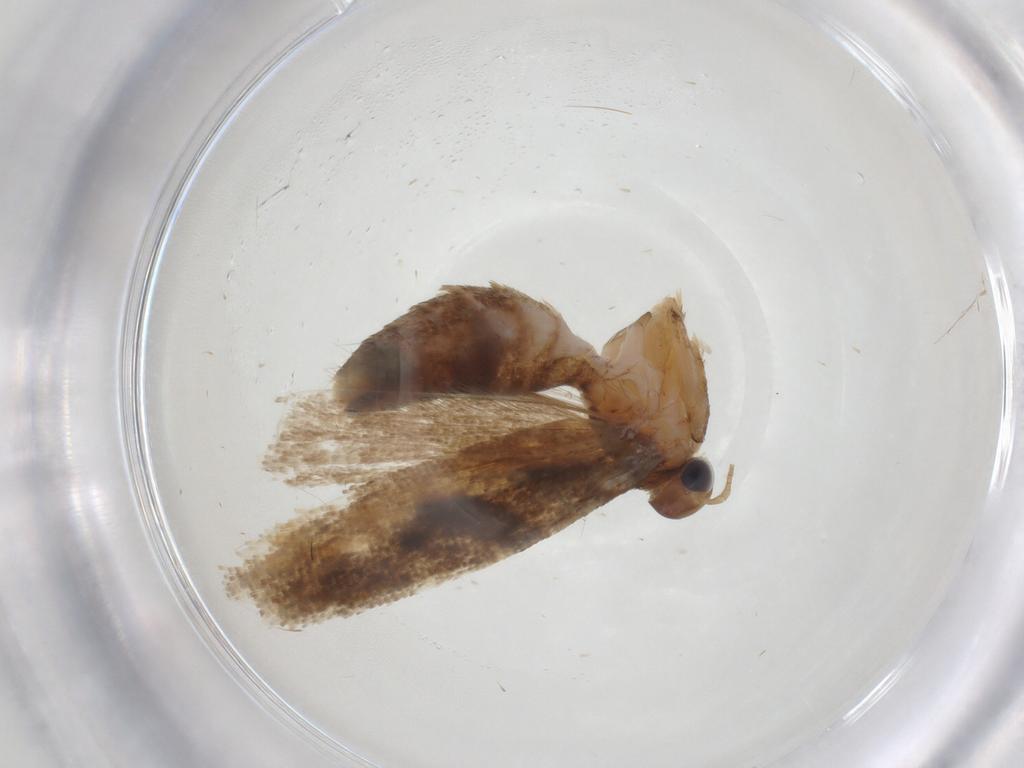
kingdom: Animalia
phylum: Arthropoda
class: Insecta
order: Lepidoptera
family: Gelechiidae
